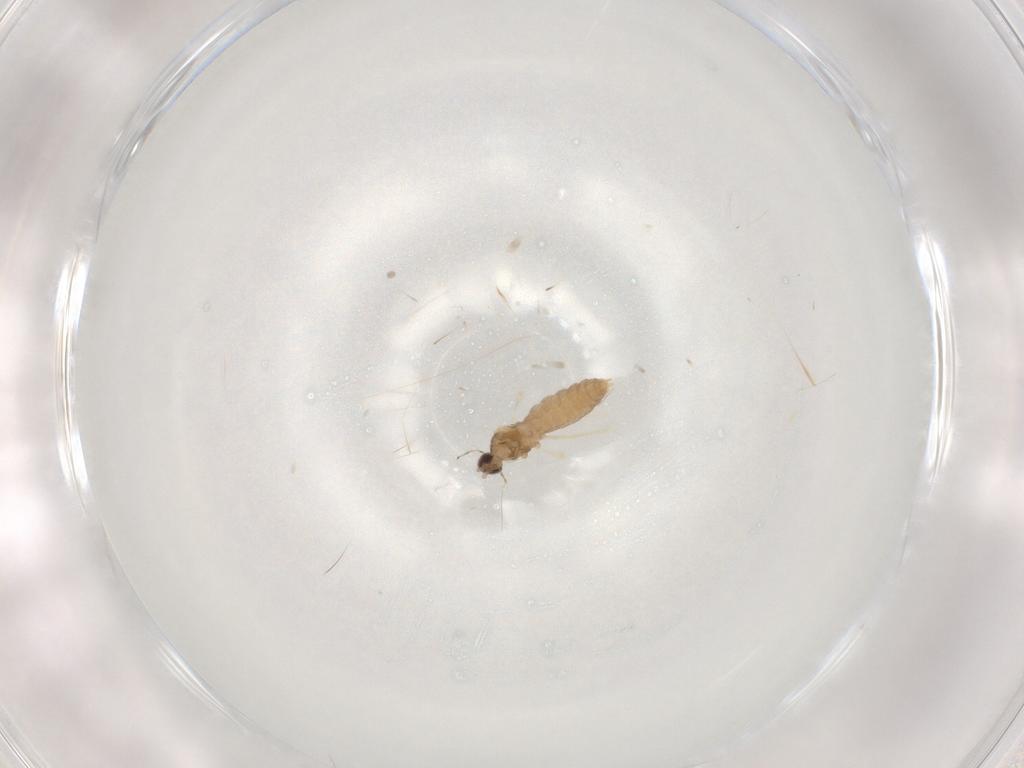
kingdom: Animalia
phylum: Arthropoda
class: Insecta
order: Diptera
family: Cecidomyiidae
